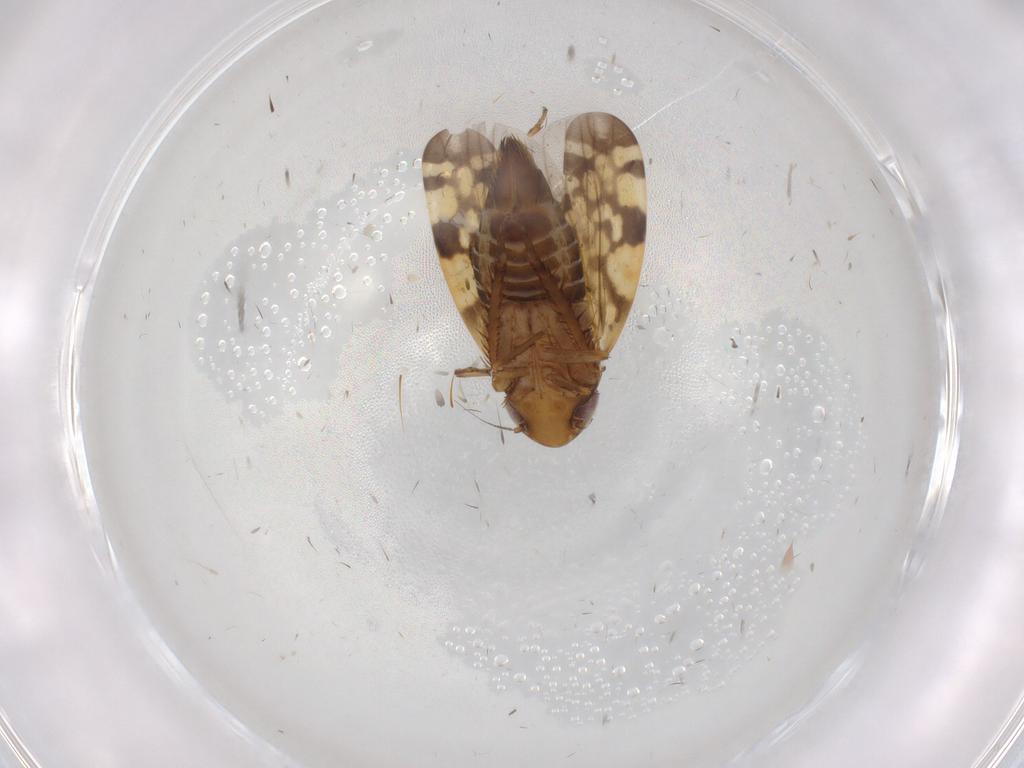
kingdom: Animalia
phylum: Arthropoda
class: Insecta
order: Hemiptera
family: Cicadellidae
